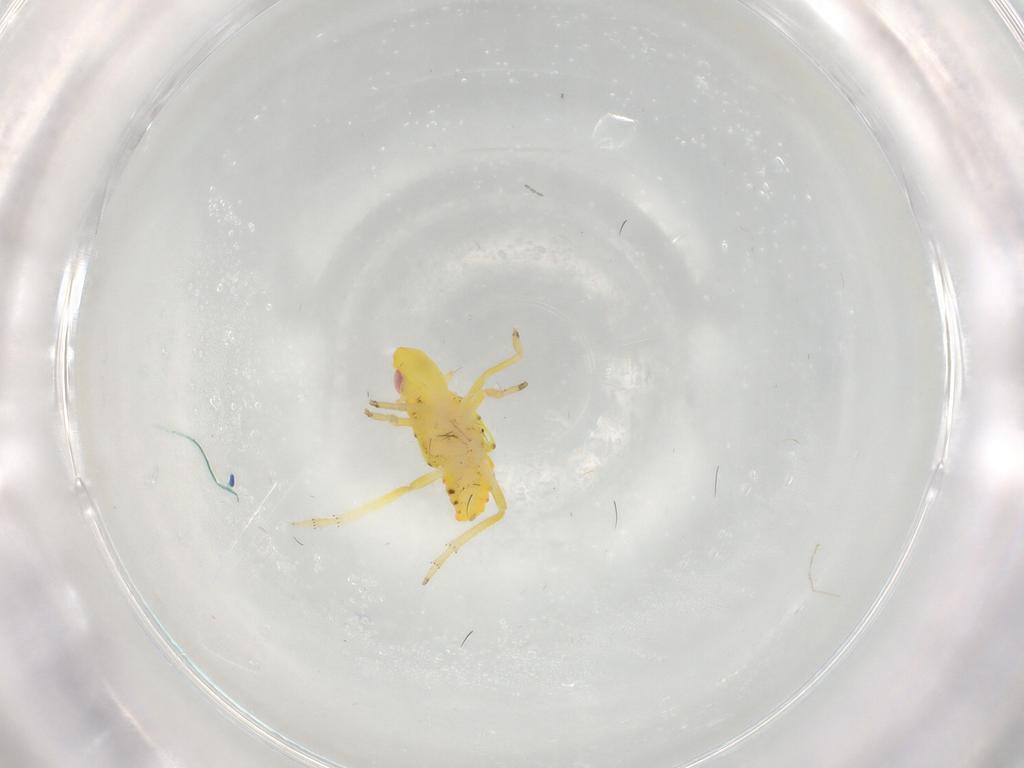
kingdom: Animalia
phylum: Arthropoda
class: Insecta
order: Hemiptera
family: Tropiduchidae
